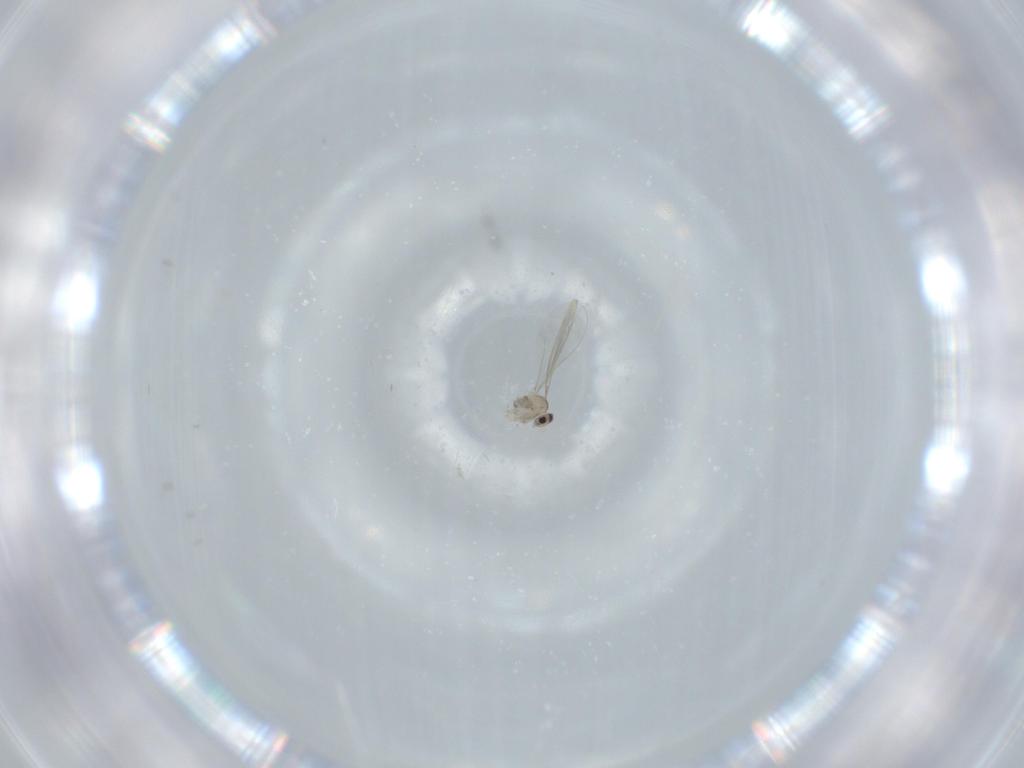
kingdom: Animalia
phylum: Arthropoda
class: Insecta
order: Diptera
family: Cecidomyiidae
